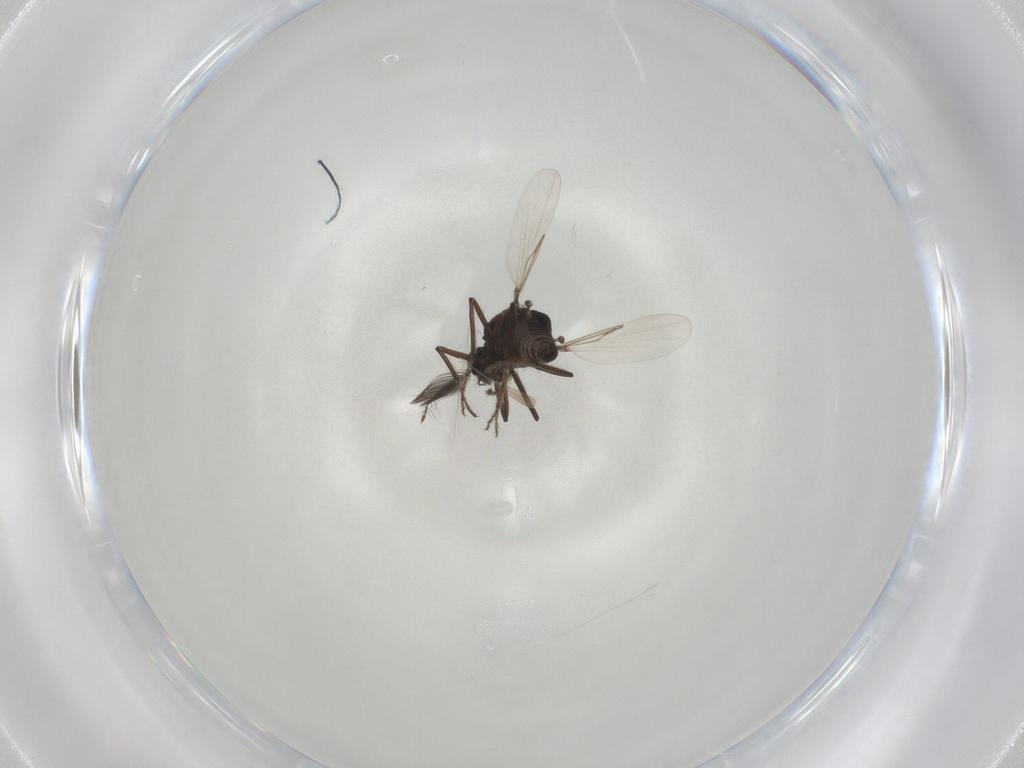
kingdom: Animalia
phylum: Arthropoda
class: Insecta
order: Diptera
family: Ceratopogonidae
